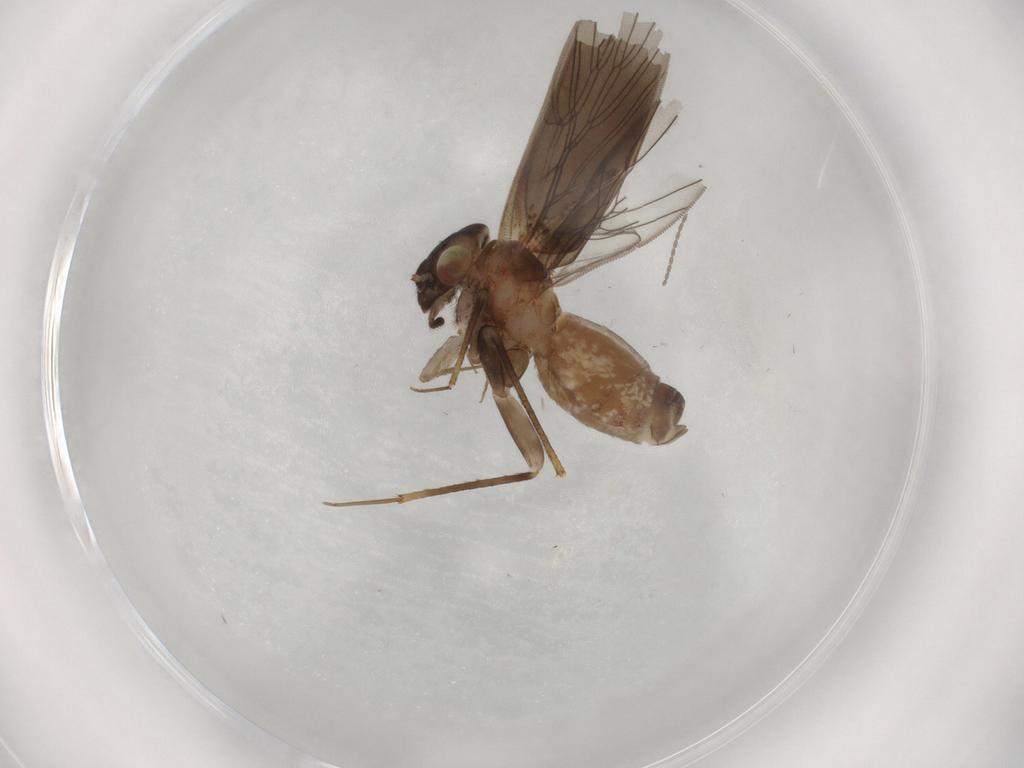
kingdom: Animalia
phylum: Arthropoda
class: Insecta
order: Psocodea
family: Lepidopsocidae
